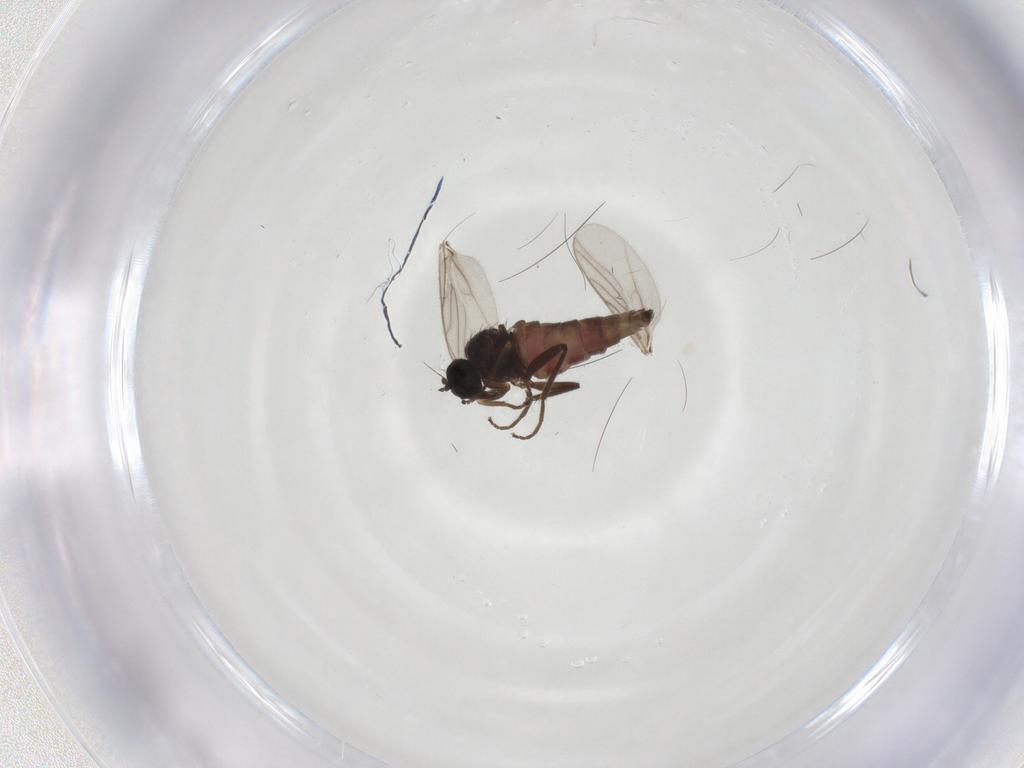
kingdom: Animalia
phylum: Arthropoda
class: Insecta
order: Diptera
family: Hybotidae
